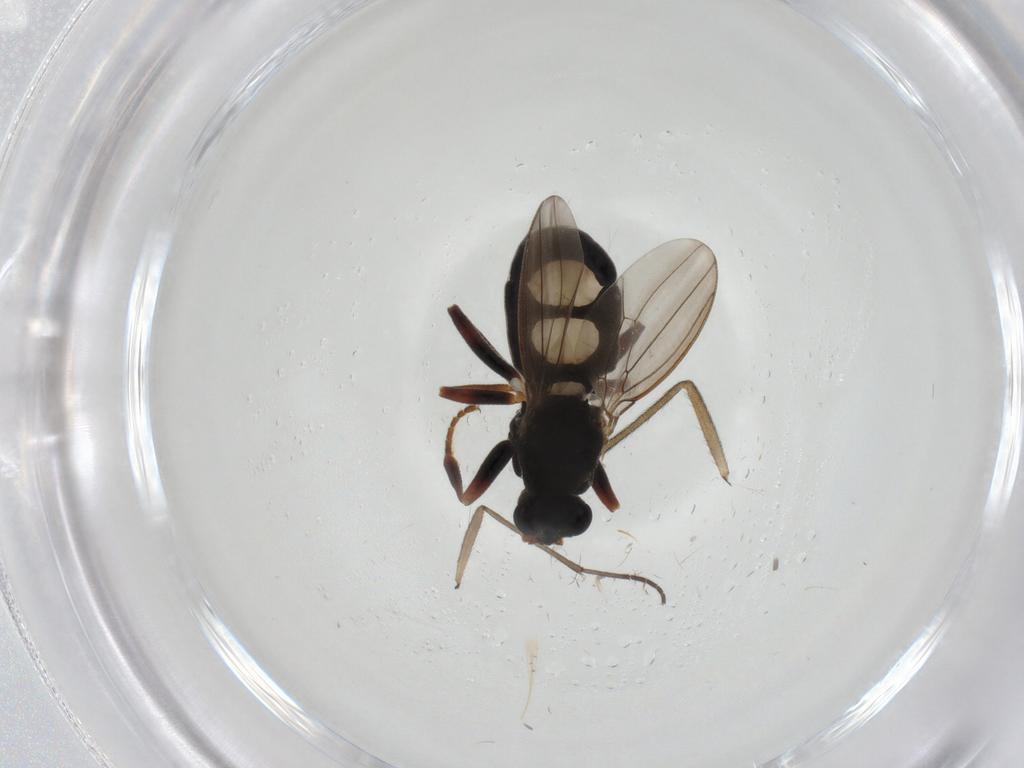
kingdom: Animalia
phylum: Arthropoda
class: Insecta
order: Diptera
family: Sphaeroceridae
